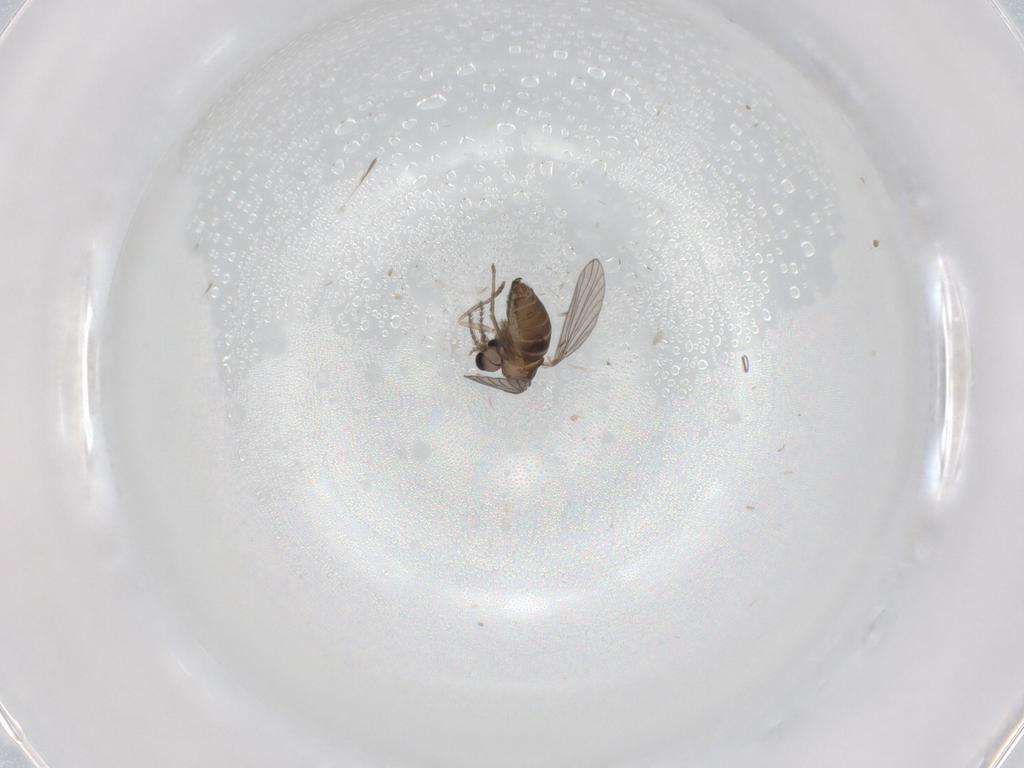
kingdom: Animalia
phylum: Arthropoda
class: Insecta
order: Diptera
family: Cecidomyiidae
